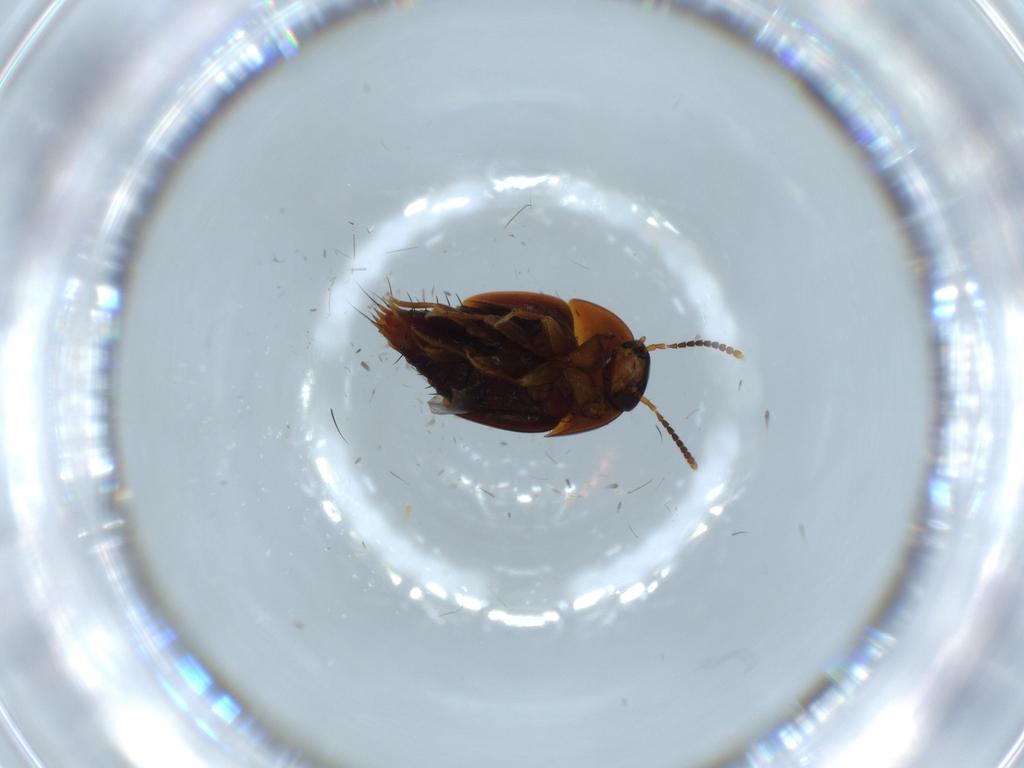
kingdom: Animalia
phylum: Arthropoda
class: Insecta
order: Coleoptera
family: Staphylinidae
